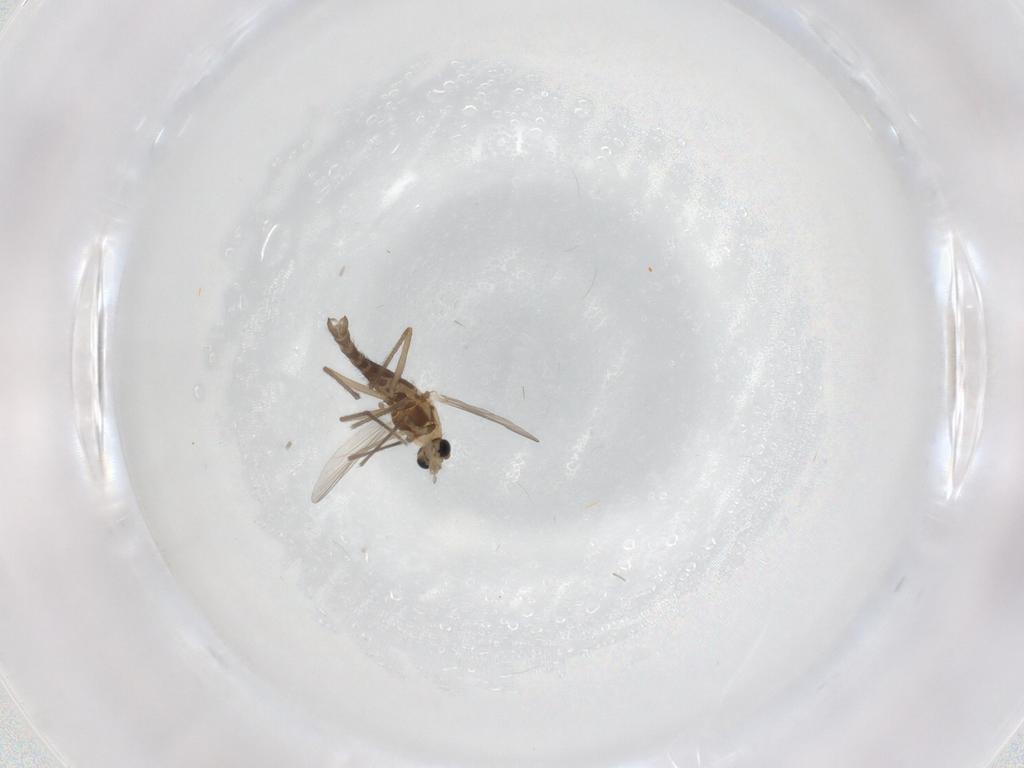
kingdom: Animalia
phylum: Arthropoda
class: Insecta
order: Diptera
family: Chironomidae
